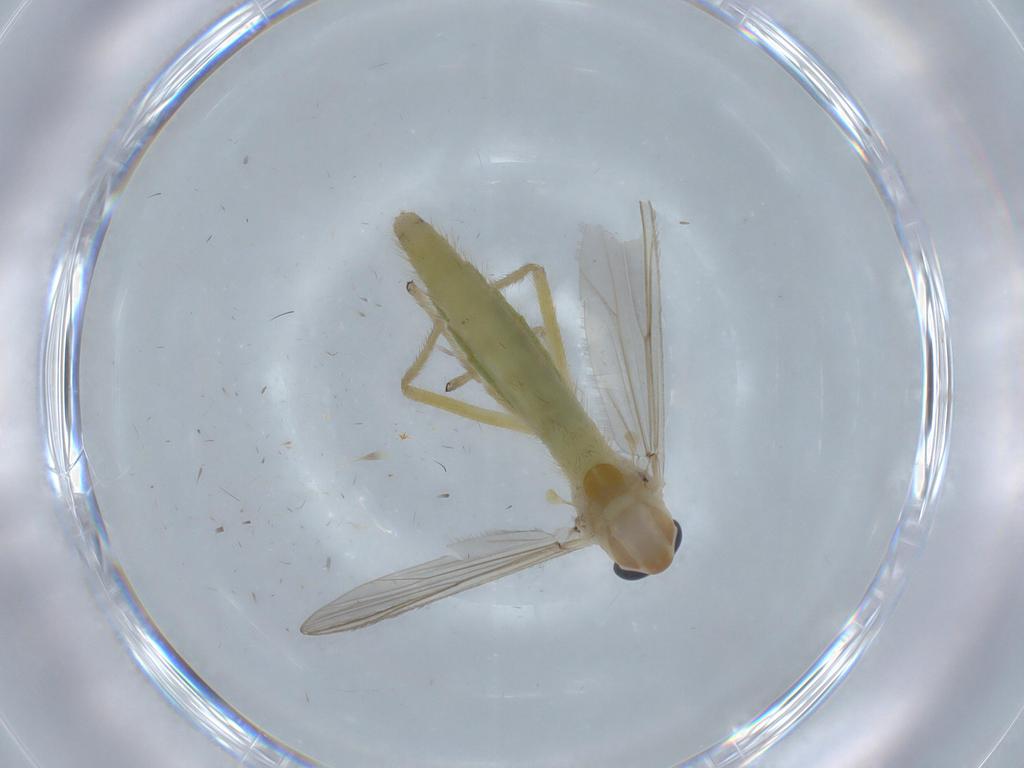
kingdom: Animalia
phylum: Arthropoda
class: Insecta
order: Diptera
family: Chironomidae
